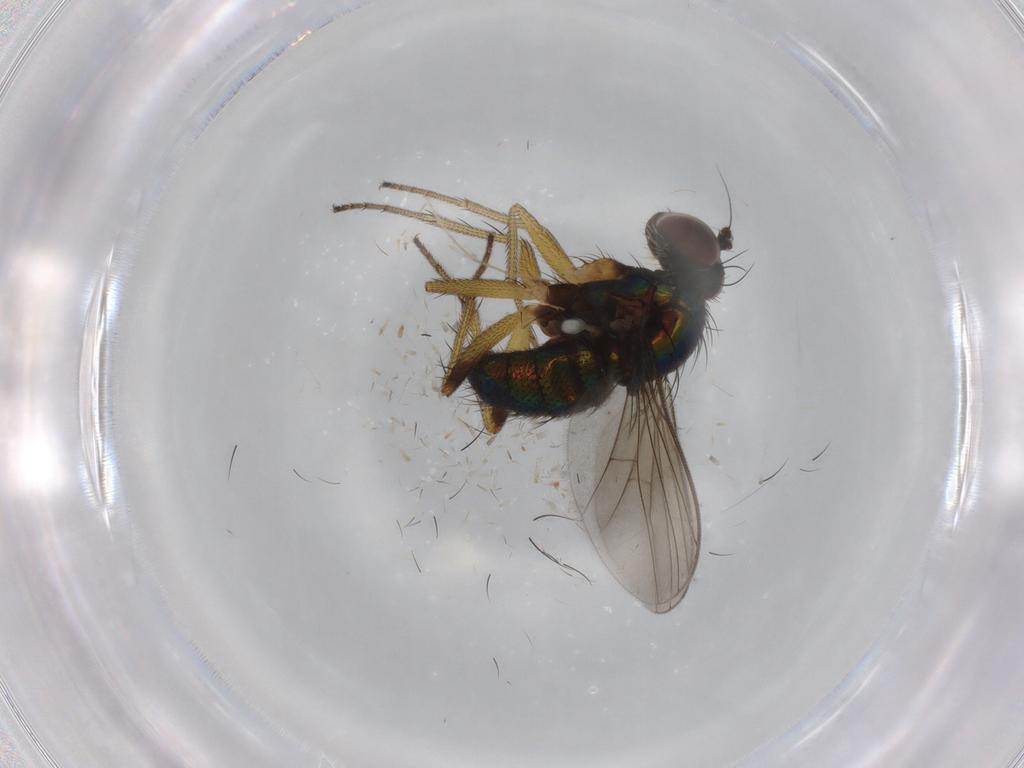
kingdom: Animalia
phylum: Arthropoda
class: Insecta
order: Diptera
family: Dolichopodidae
